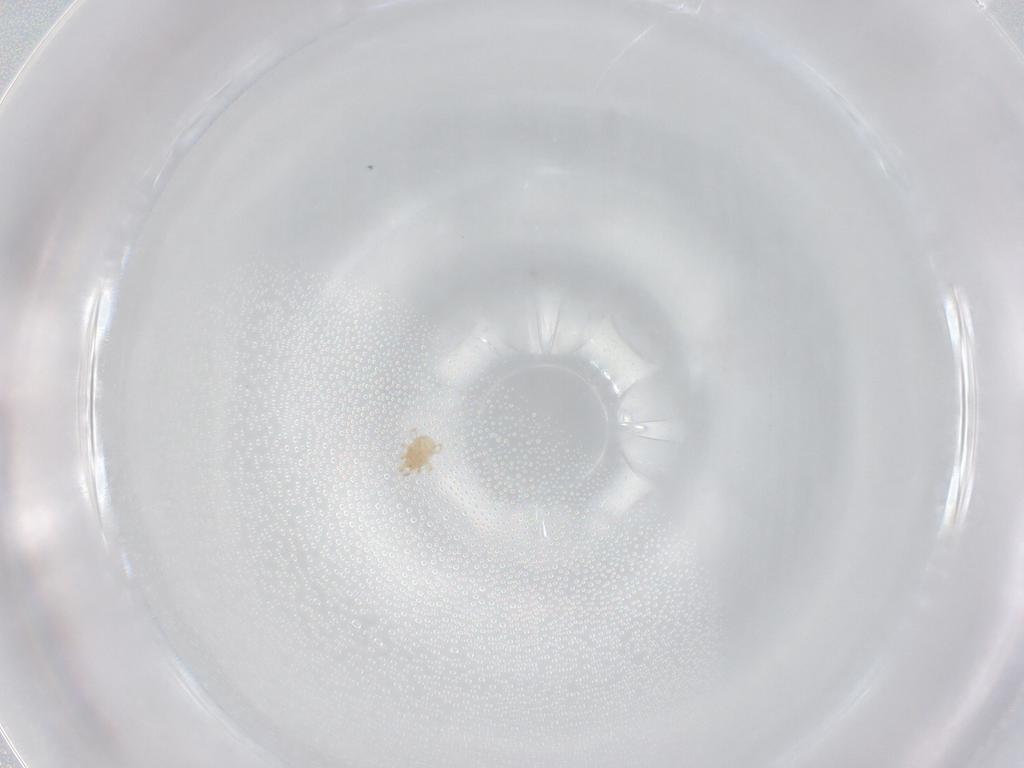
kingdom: Animalia
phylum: Arthropoda
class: Arachnida
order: Mesostigmata
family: Phytoseiidae
